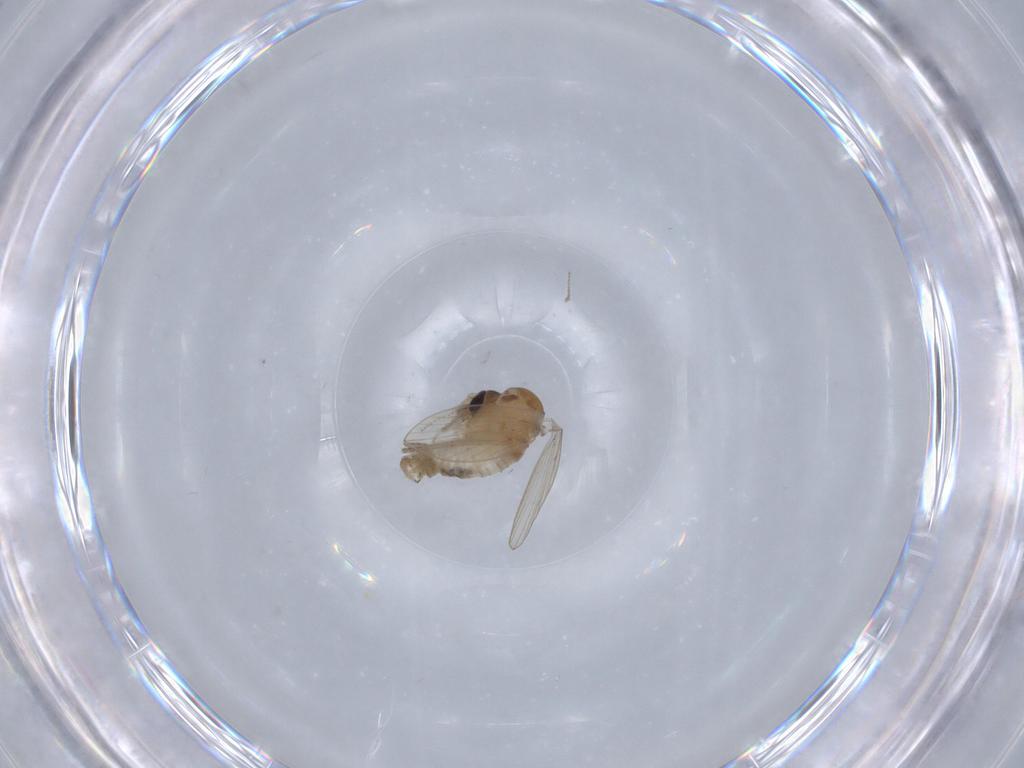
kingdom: Animalia
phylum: Arthropoda
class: Insecta
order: Diptera
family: Psychodidae
